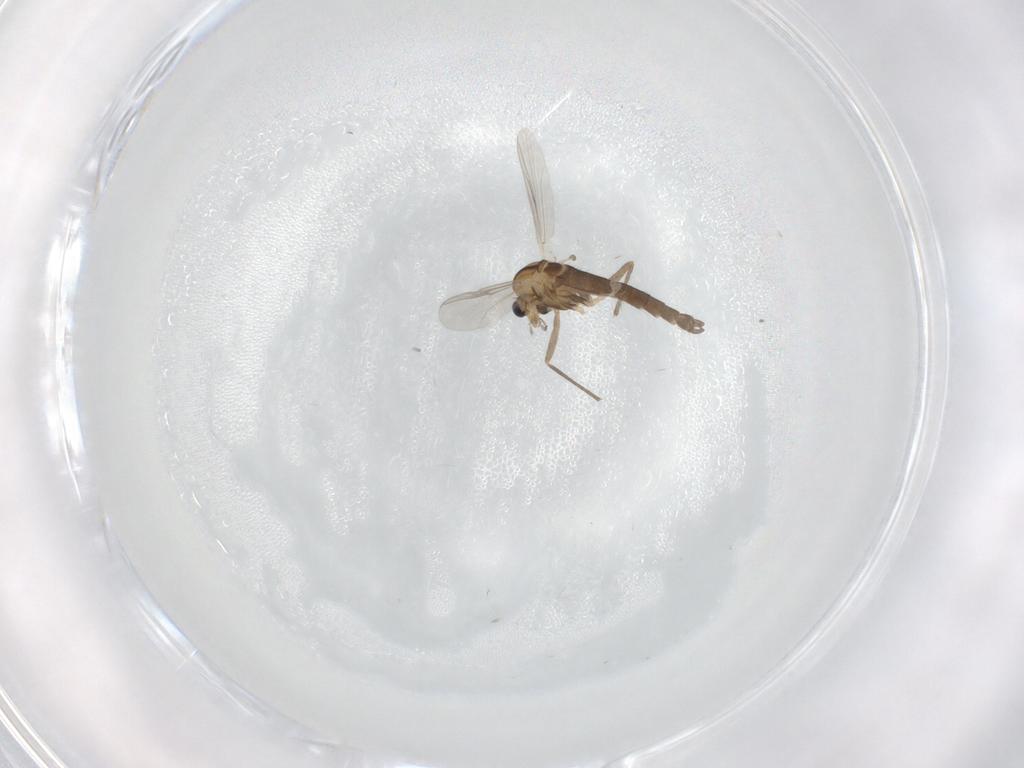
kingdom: Animalia
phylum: Arthropoda
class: Insecta
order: Diptera
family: Chironomidae
